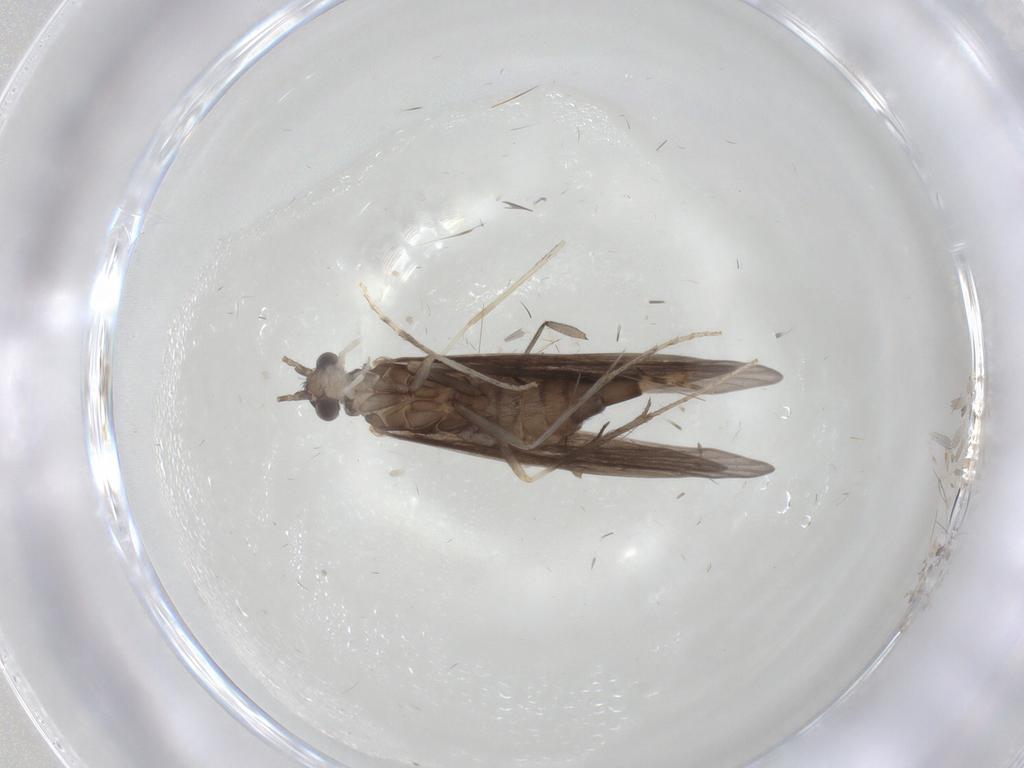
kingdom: Animalia
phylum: Arthropoda
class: Insecta
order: Trichoptera
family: Xiphocentronidae
